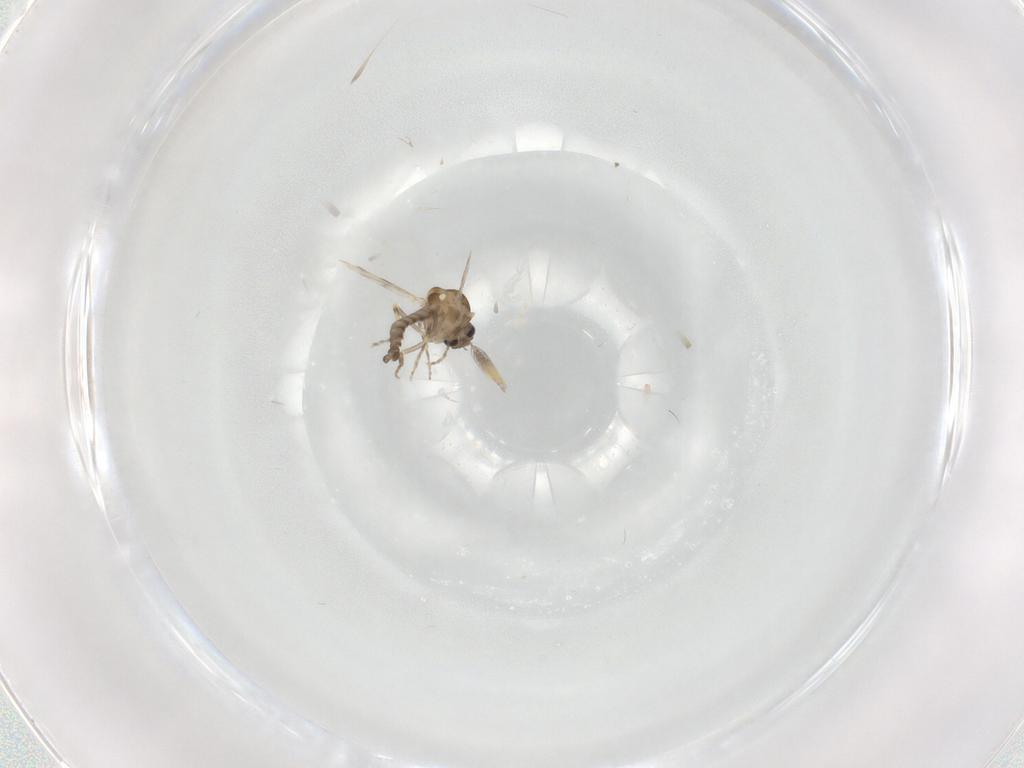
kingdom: Animalia
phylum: Arthropoda
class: Insecta
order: Diptera
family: Ceratopogonidae
